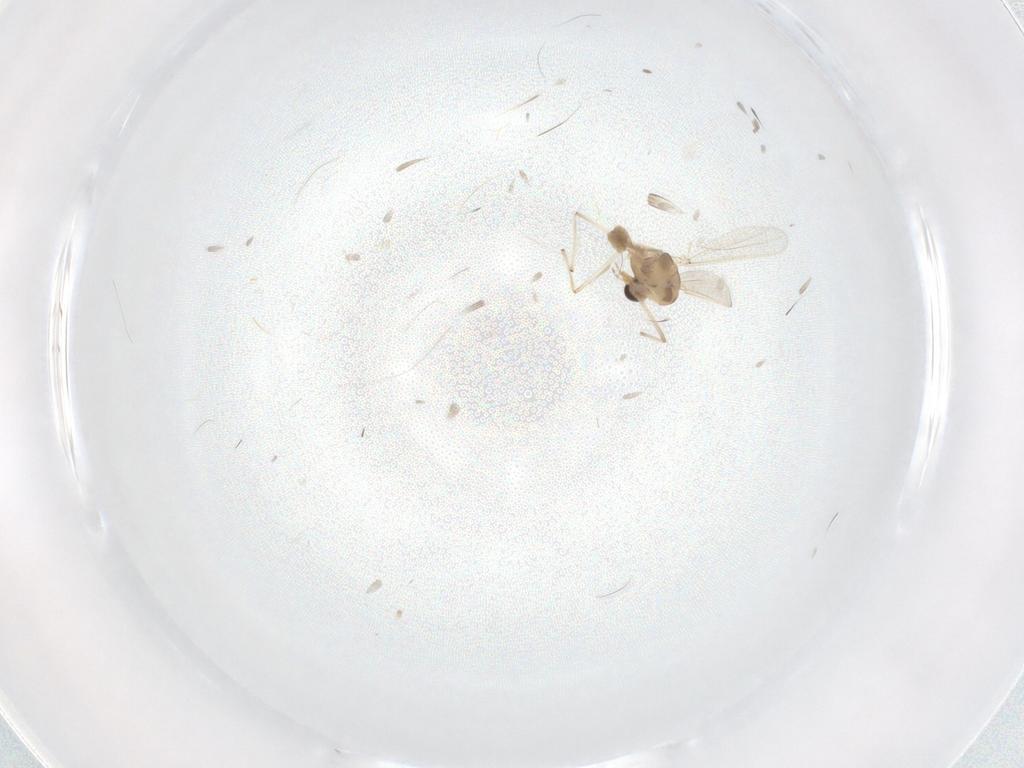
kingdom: Animalia
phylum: Arthropoda
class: Insecta
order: Diptera
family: Chironomidae
